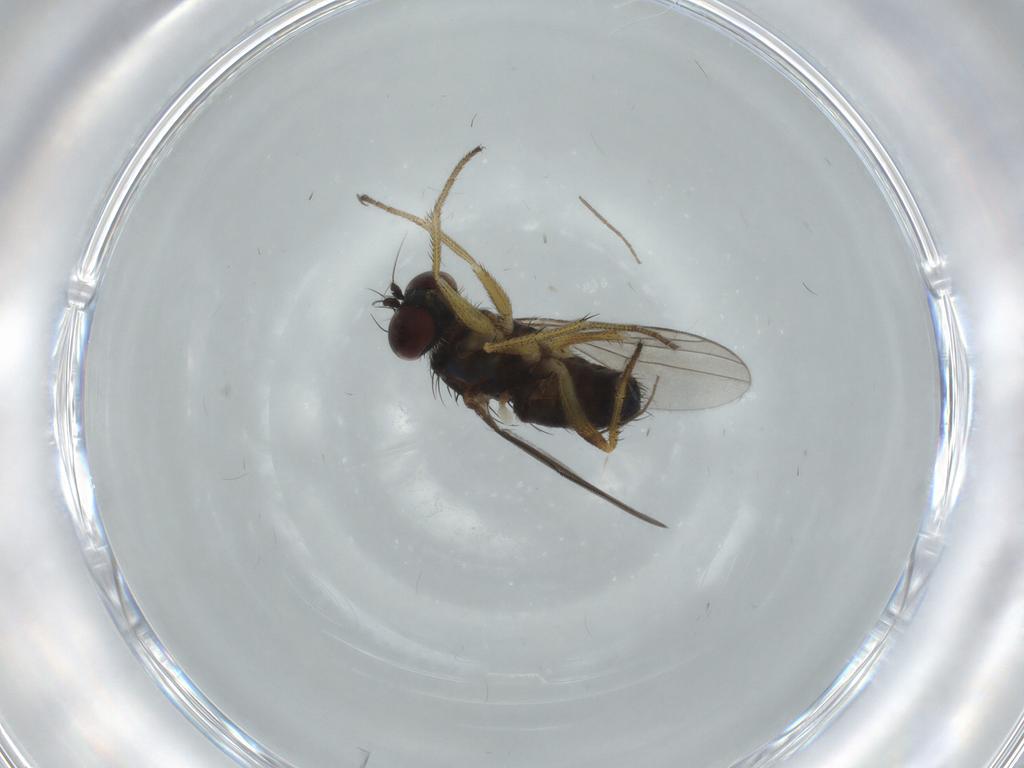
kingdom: Animalia
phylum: Arthropoda
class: Insecta
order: Diptera
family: Dolichopodidae
